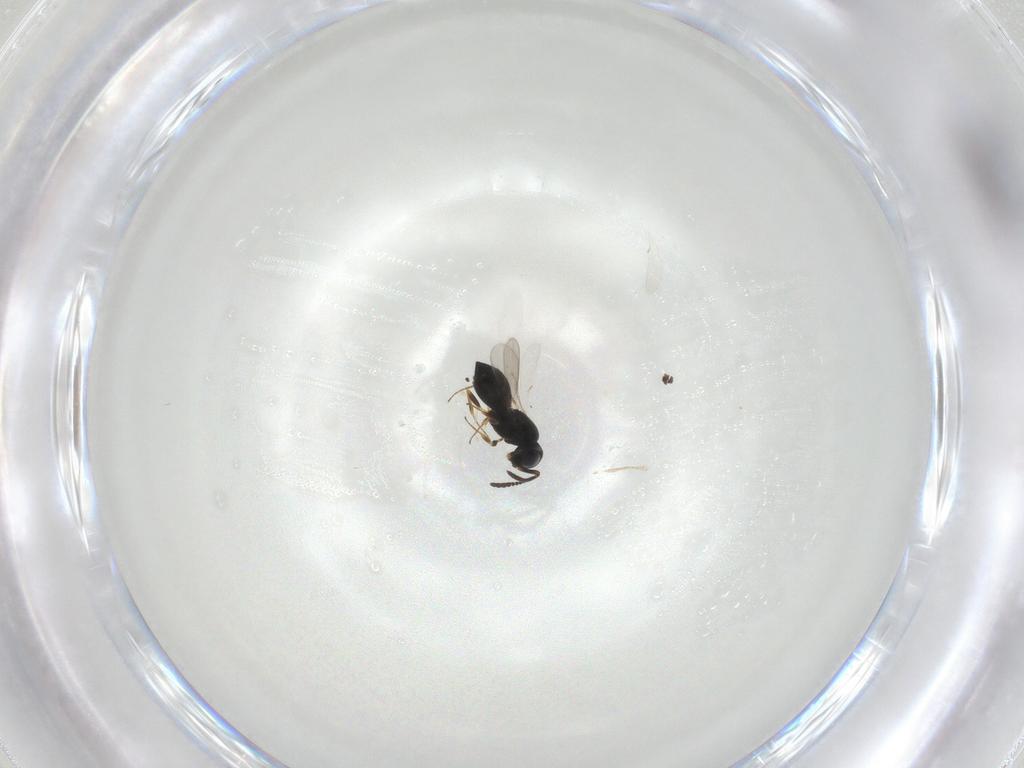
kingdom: Animalia
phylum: Arthropoda
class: Insecta
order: Hymenoptera
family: Scelionidae
